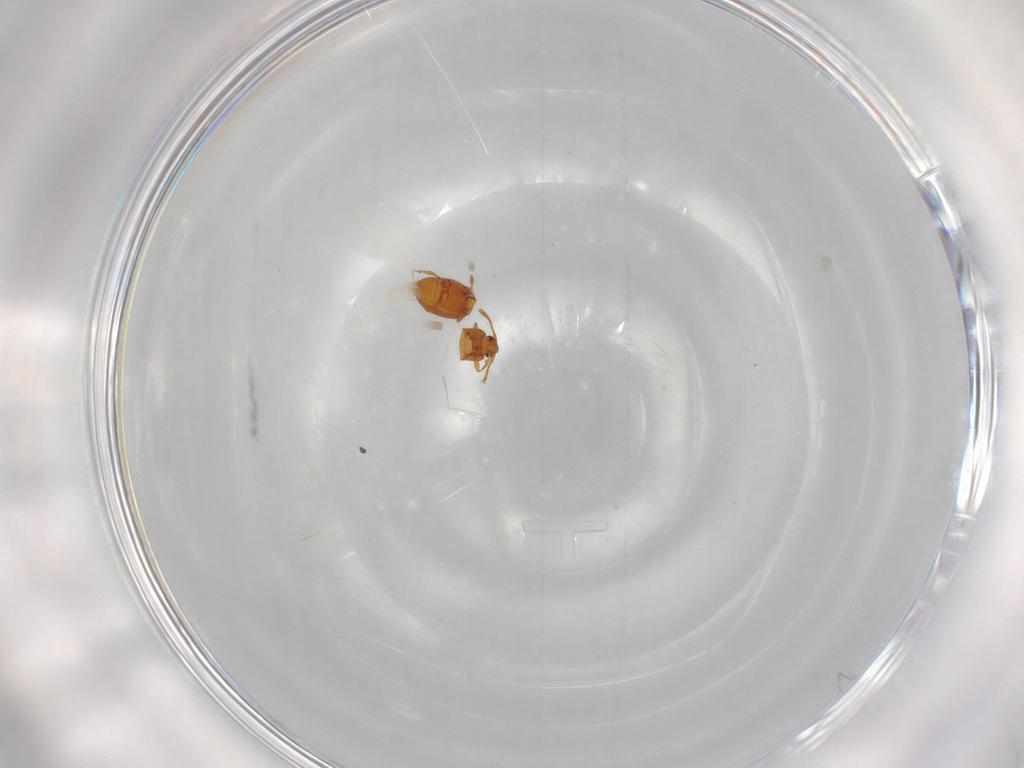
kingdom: Animalia
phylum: Arthropoda
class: Insecta
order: Coleoptera
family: Staphylinidae
